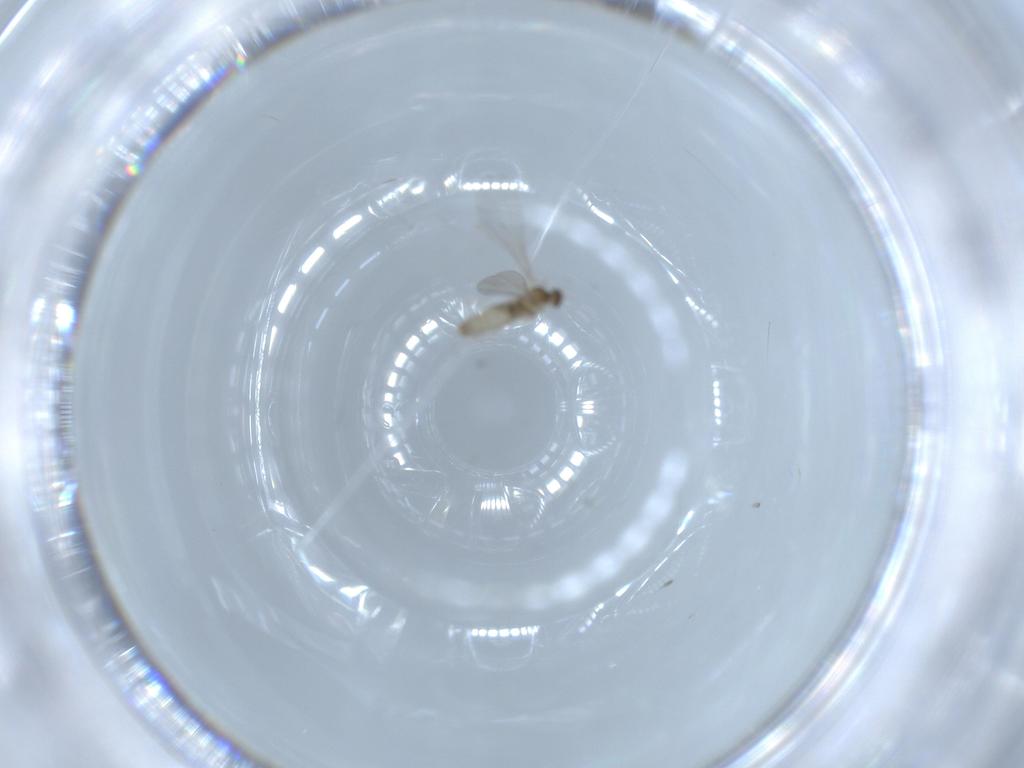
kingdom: Animalia
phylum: Arthropoda
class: Insecta
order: Diptera
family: Cecidomyiidae
